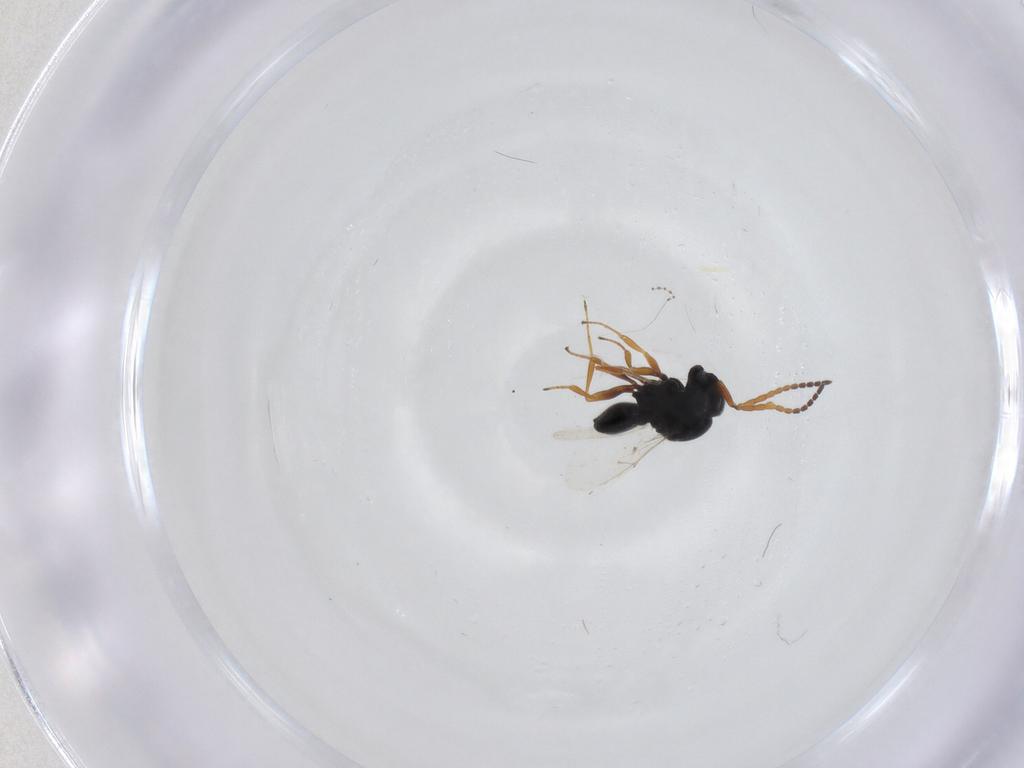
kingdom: Animalia
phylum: Arthropoda
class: Insecta
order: Hymenoptera
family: Scelionidae
